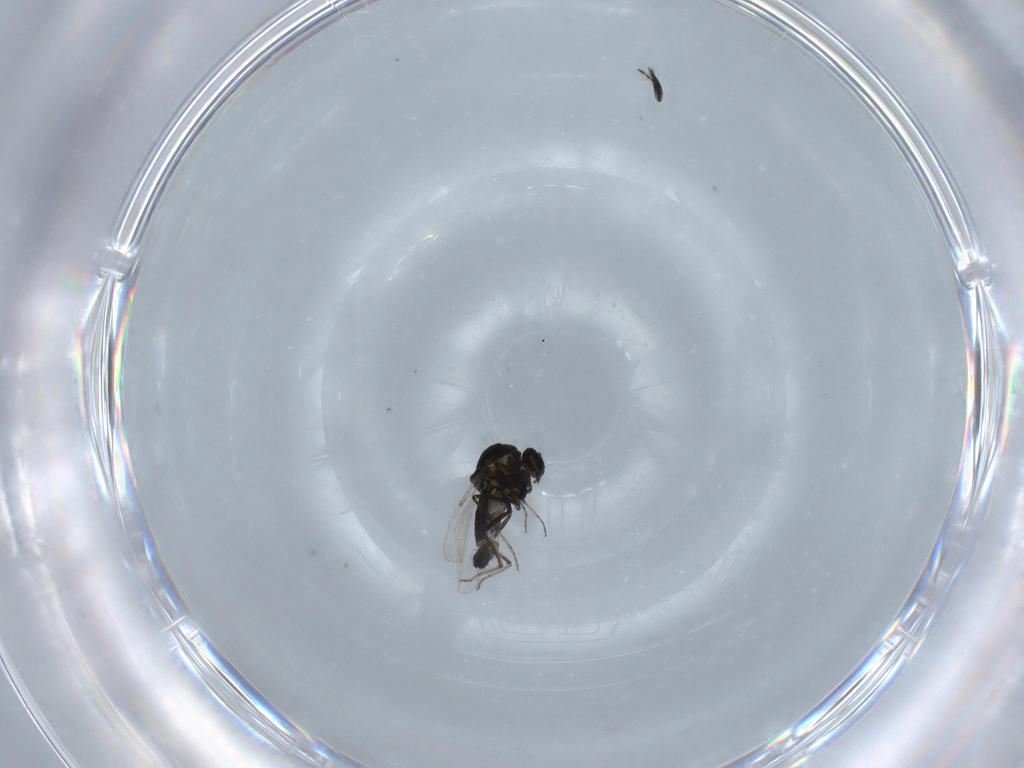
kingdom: Animalia
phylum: Arthropoda
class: Insecta
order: Diptera
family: Ceratopogonidae
